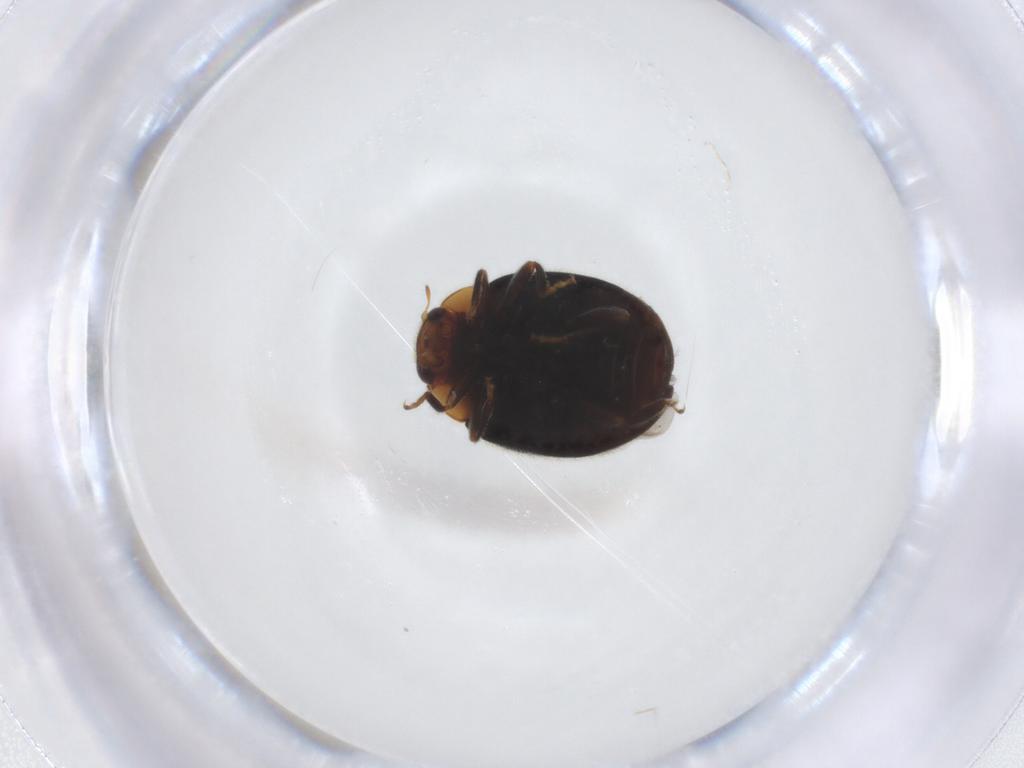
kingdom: Animalia
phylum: Arthropoda
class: Insecta
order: Coleoptera
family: Coccinellidae
